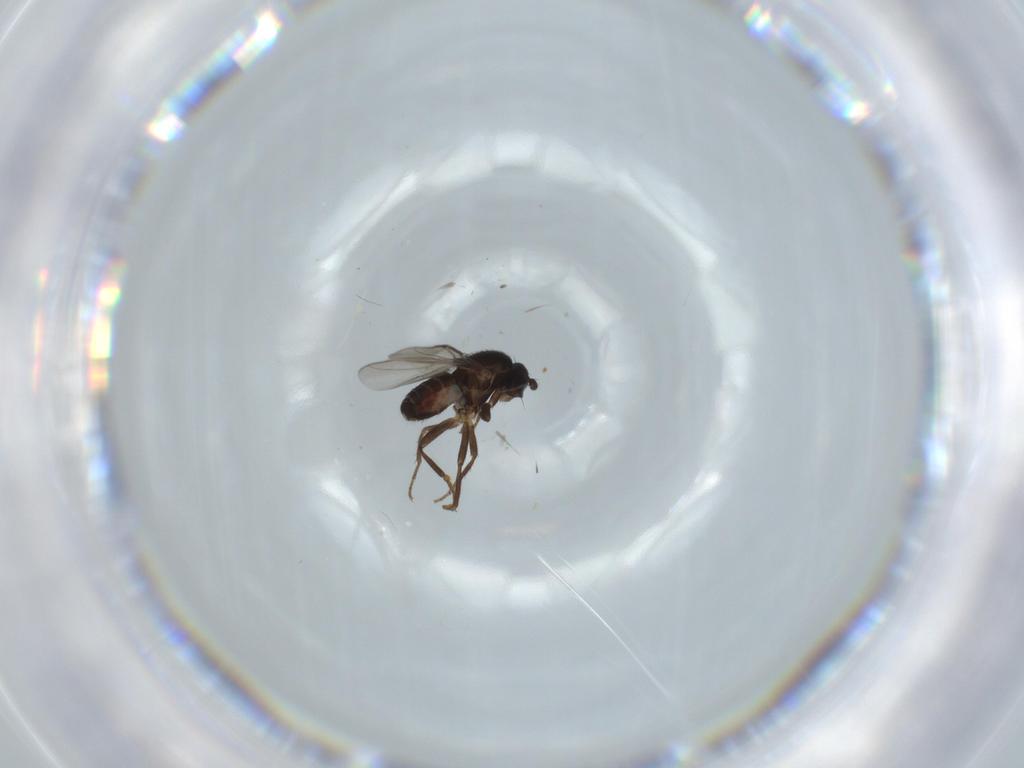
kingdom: Animalia
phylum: Arthropoda
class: Insecta
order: Diptera
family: Sphaeroceridae
